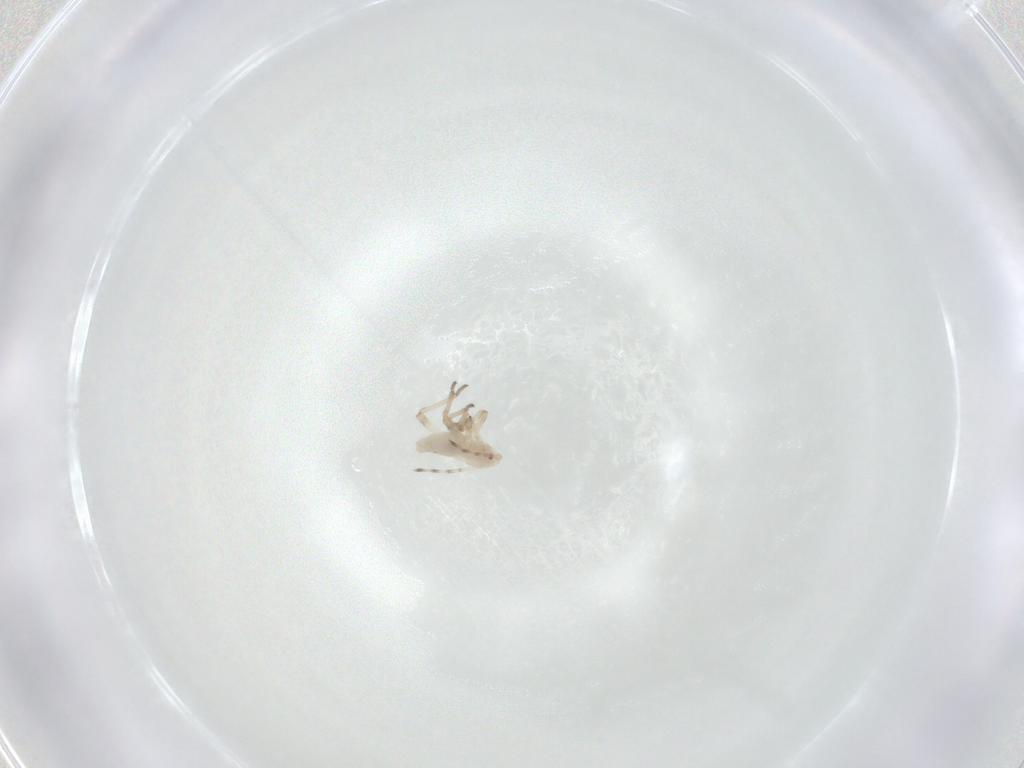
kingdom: Animalia
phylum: Arthropoda
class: Insecta
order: Hemiptera
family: Aphididae
